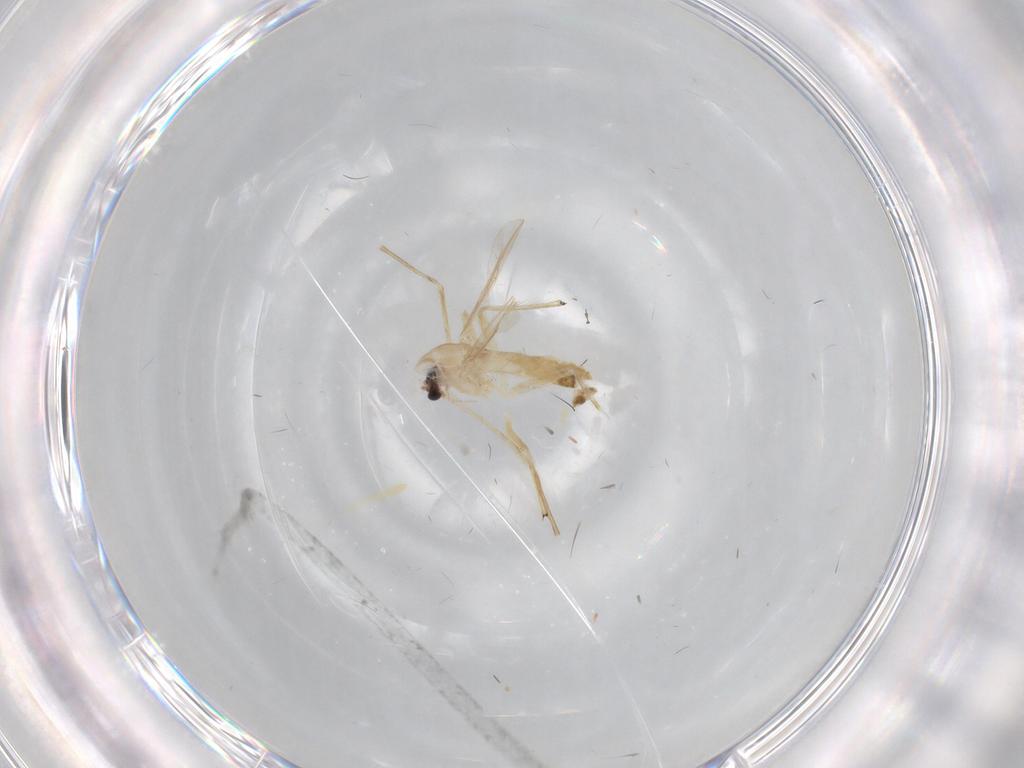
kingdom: Animalia
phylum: Arthropoda
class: Insecta
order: Diptera
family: Chironomidae
